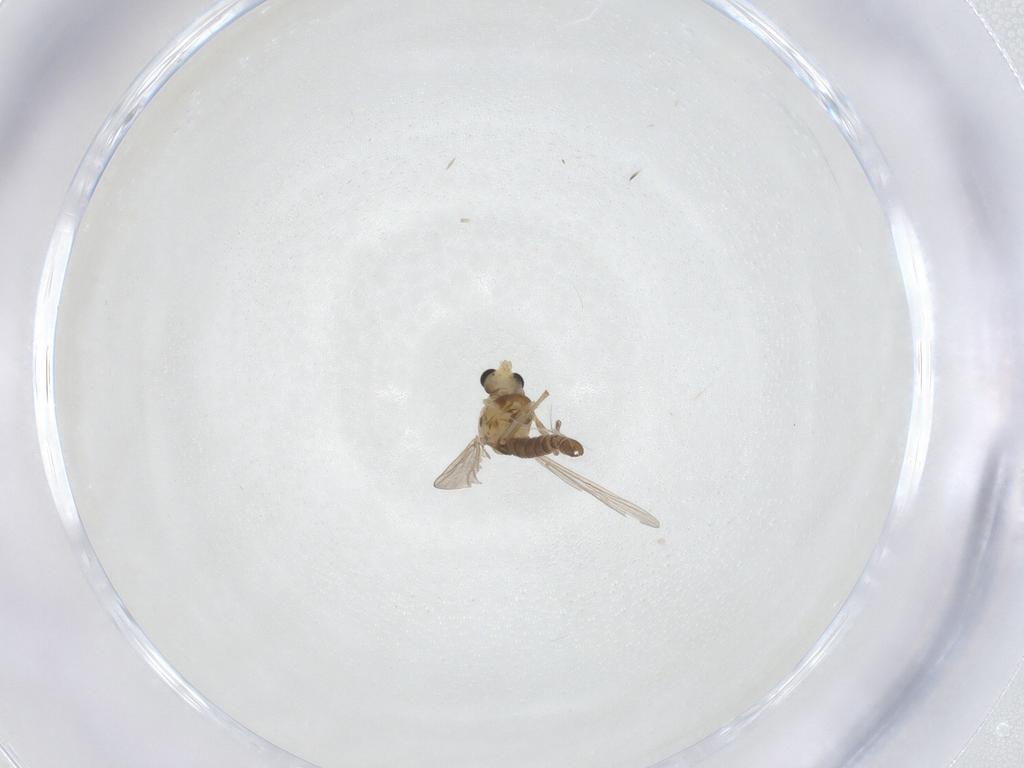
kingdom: Animalia
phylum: Arthropoda
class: Insecta
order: Diptera
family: Chironomidae
